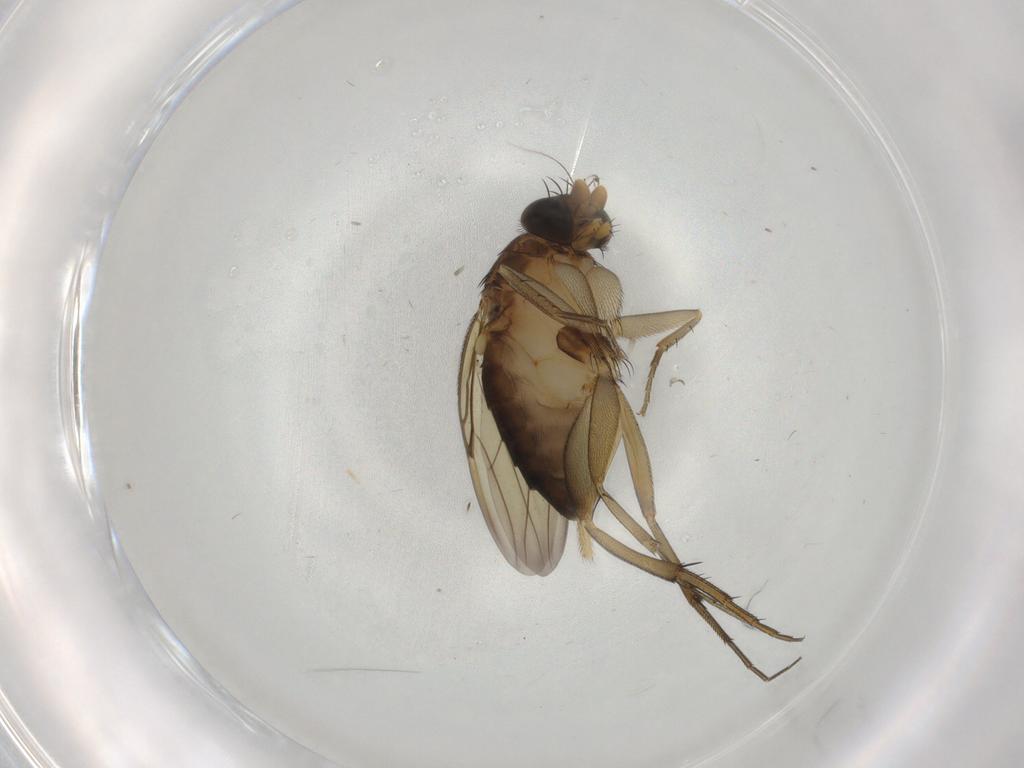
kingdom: Animalia
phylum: Arthropoda
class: Insecta
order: Diptera
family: Phoridae
